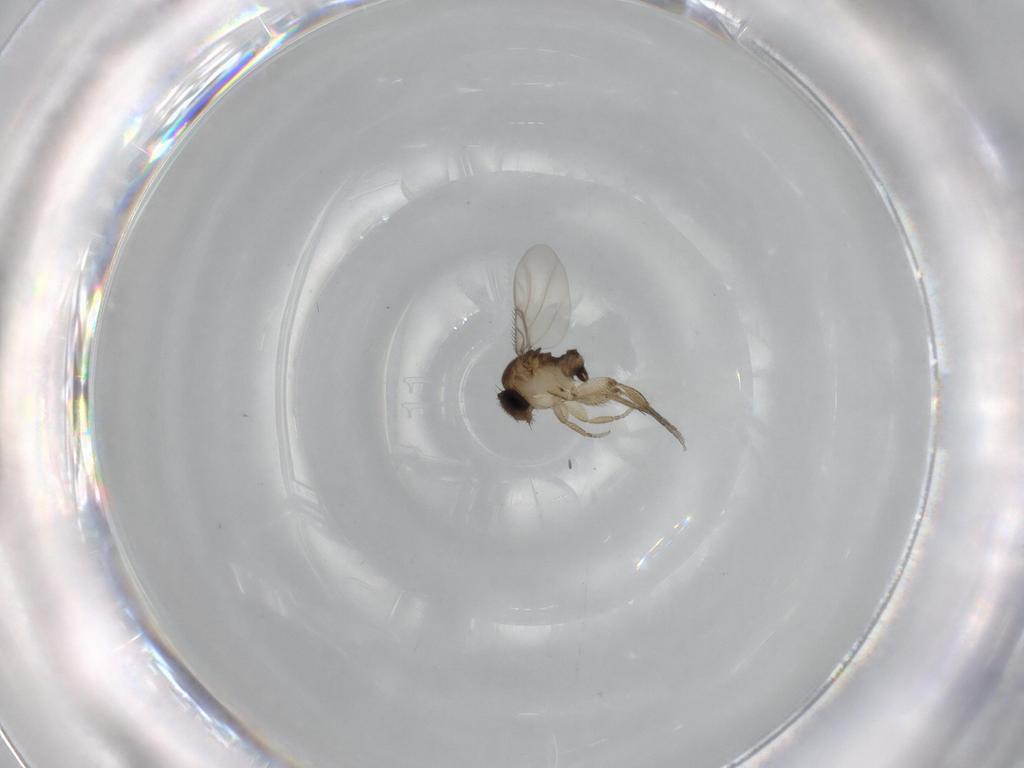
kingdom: Animalia
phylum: Arthropoda
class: Insecta
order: Diptera
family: Phoridae
